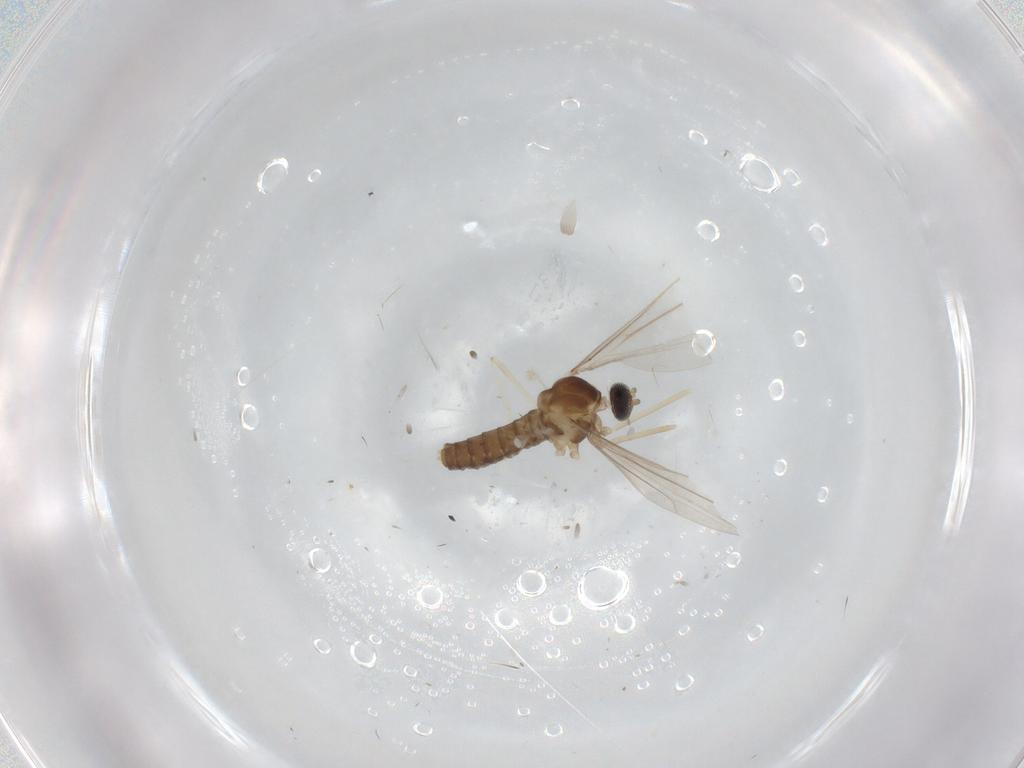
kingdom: Animalia
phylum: Arthropoda
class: Insecta
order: Diptera
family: Cecidomyiidae
